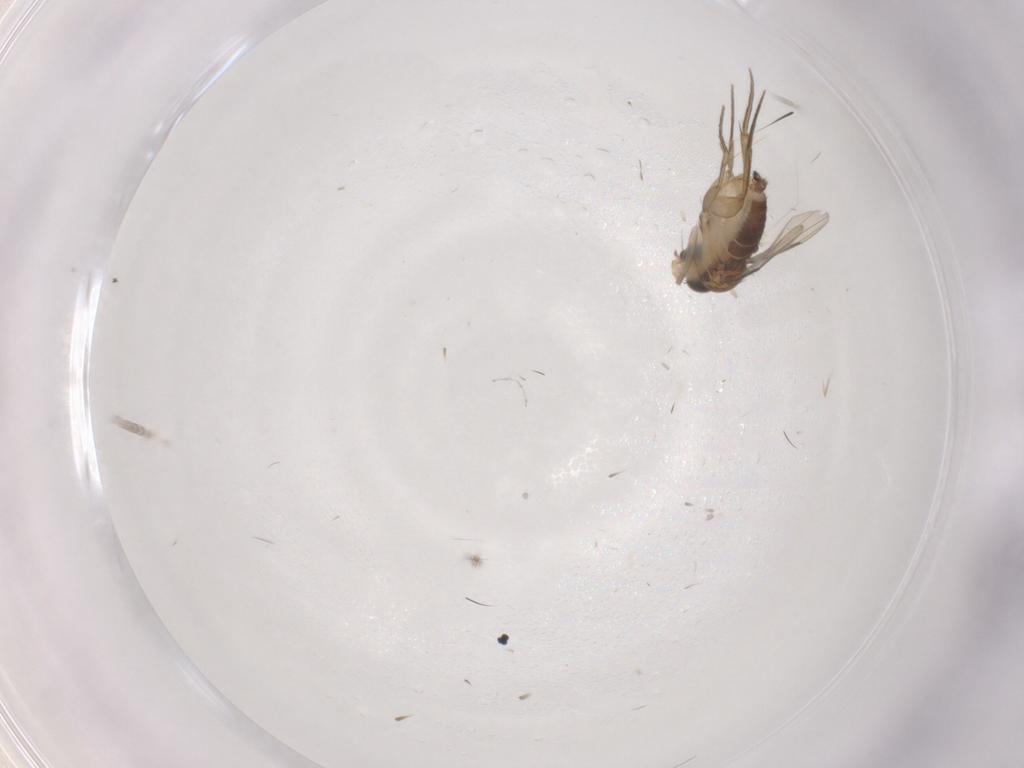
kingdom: Animalia
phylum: Arthropoda
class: Insecta
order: Diptera
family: Phoridae
